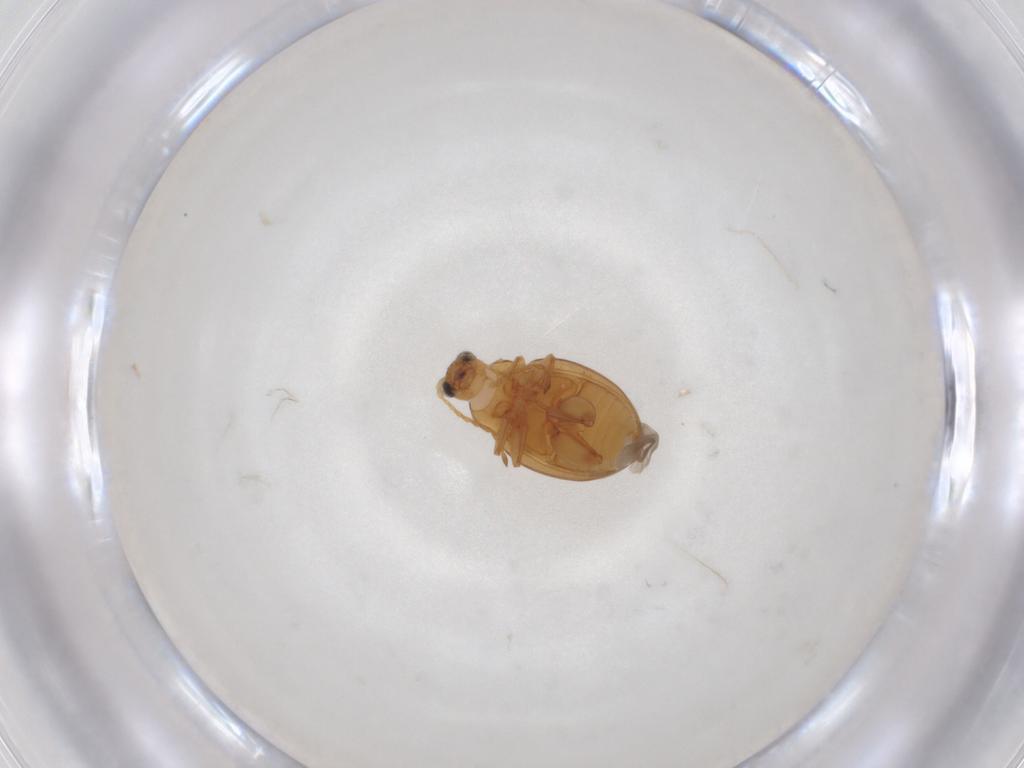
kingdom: Animalia
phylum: Arthropoda
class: Insecta
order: Coleoptera
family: Chrysomelidae
